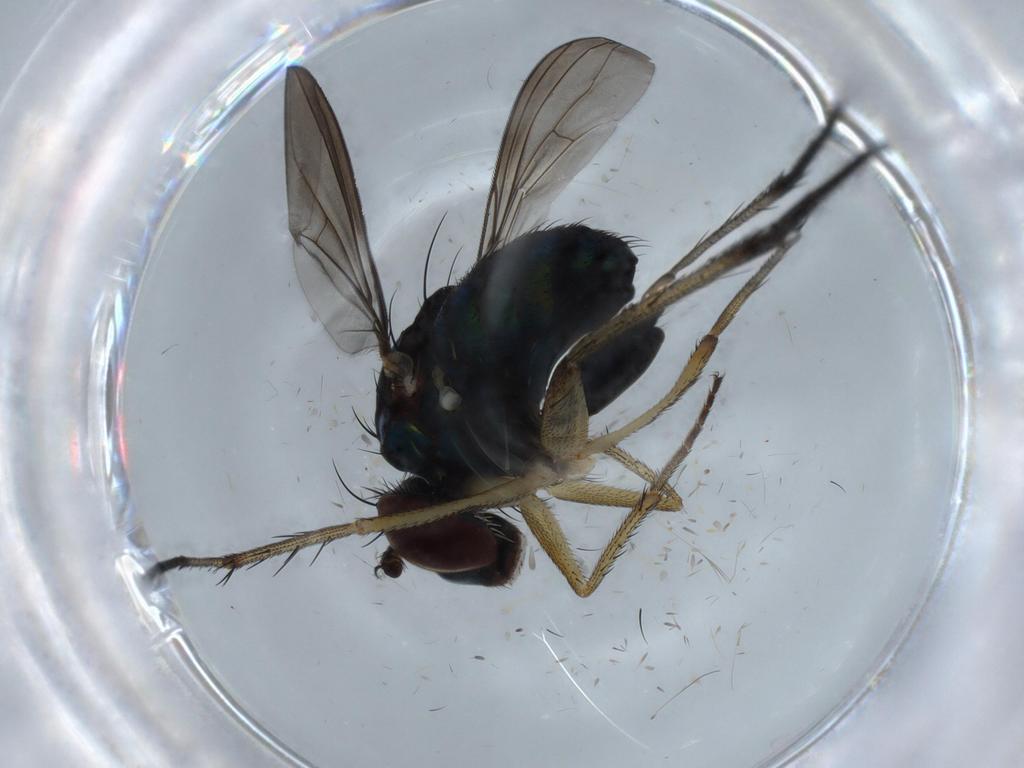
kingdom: Animalia
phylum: Arthropoda
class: Insecta
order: Diptera
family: Dolichopodidae
